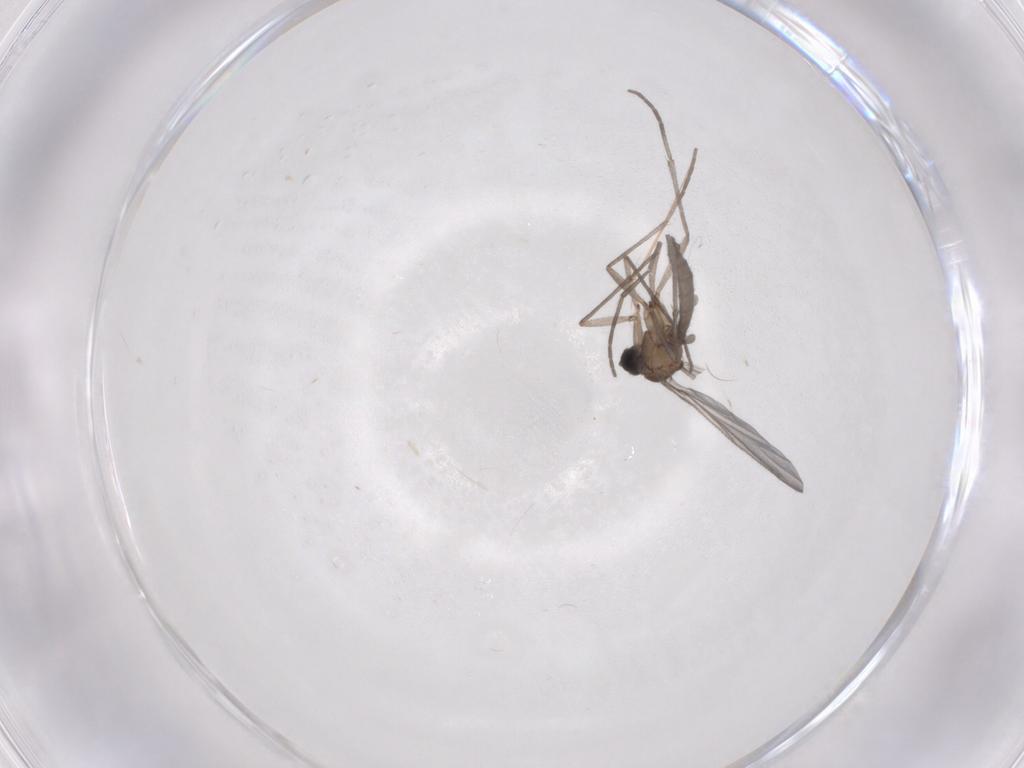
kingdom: Animalia
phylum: Arthropoda
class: Insecta
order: Diptera
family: Sciaridae
